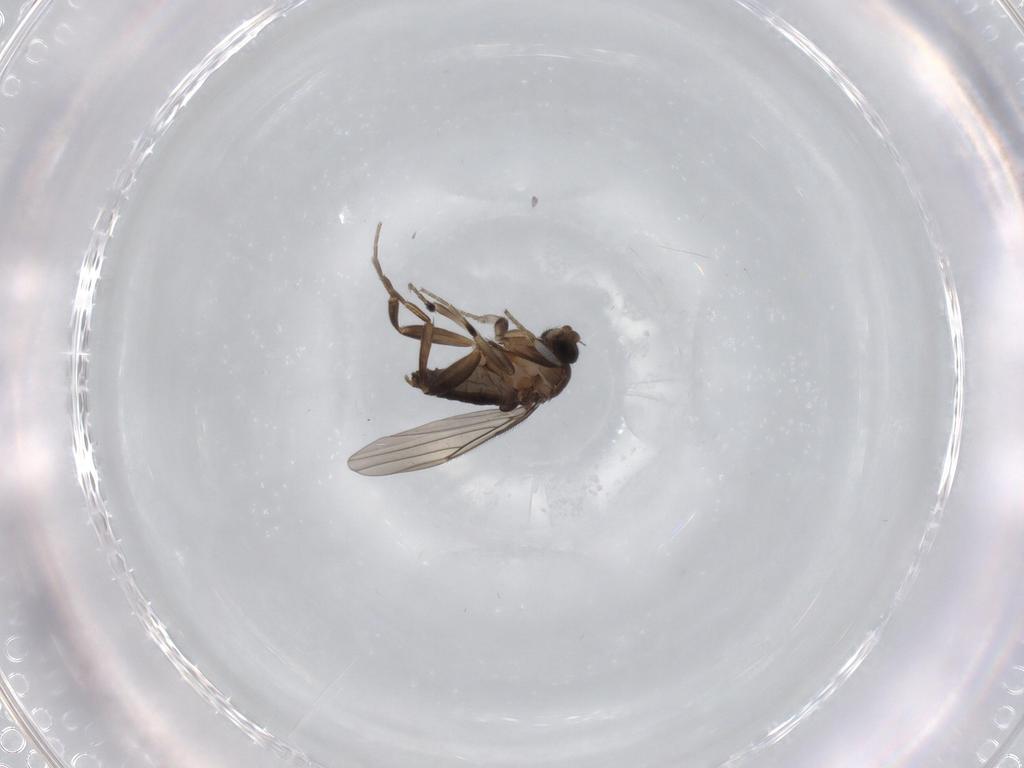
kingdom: Animalia
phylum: Arthropoda
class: Insecta
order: Diptera
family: Phoridae
